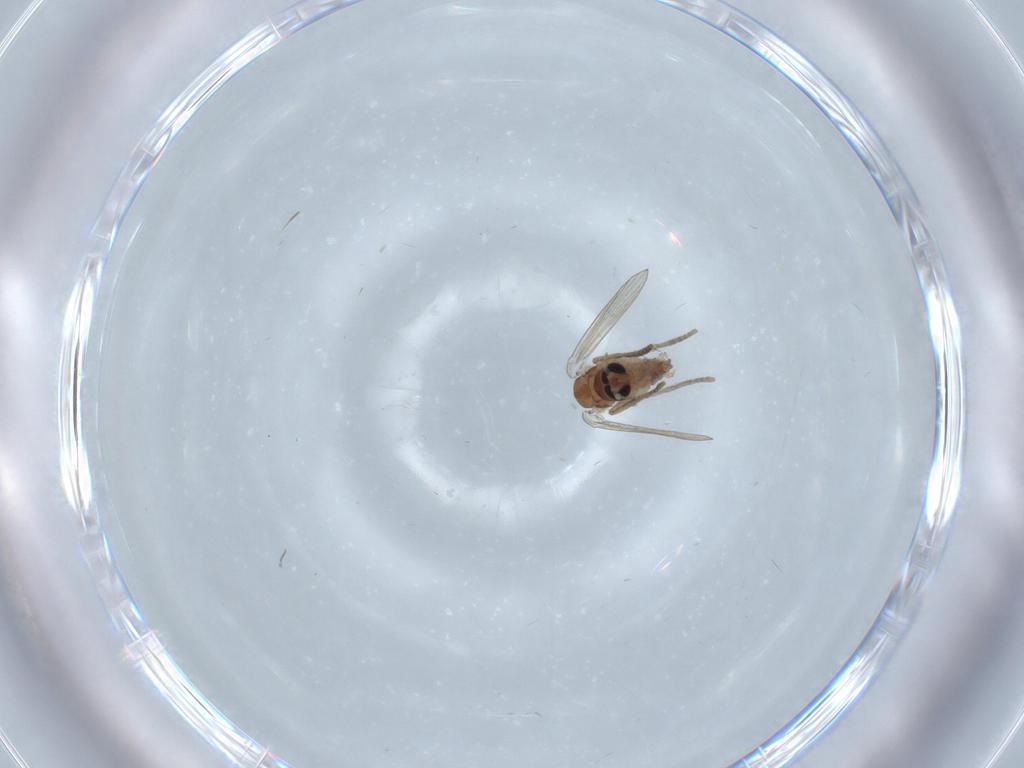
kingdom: Animalia
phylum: Arthropoda
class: Insecta
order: Diptera
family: Psychodidae
